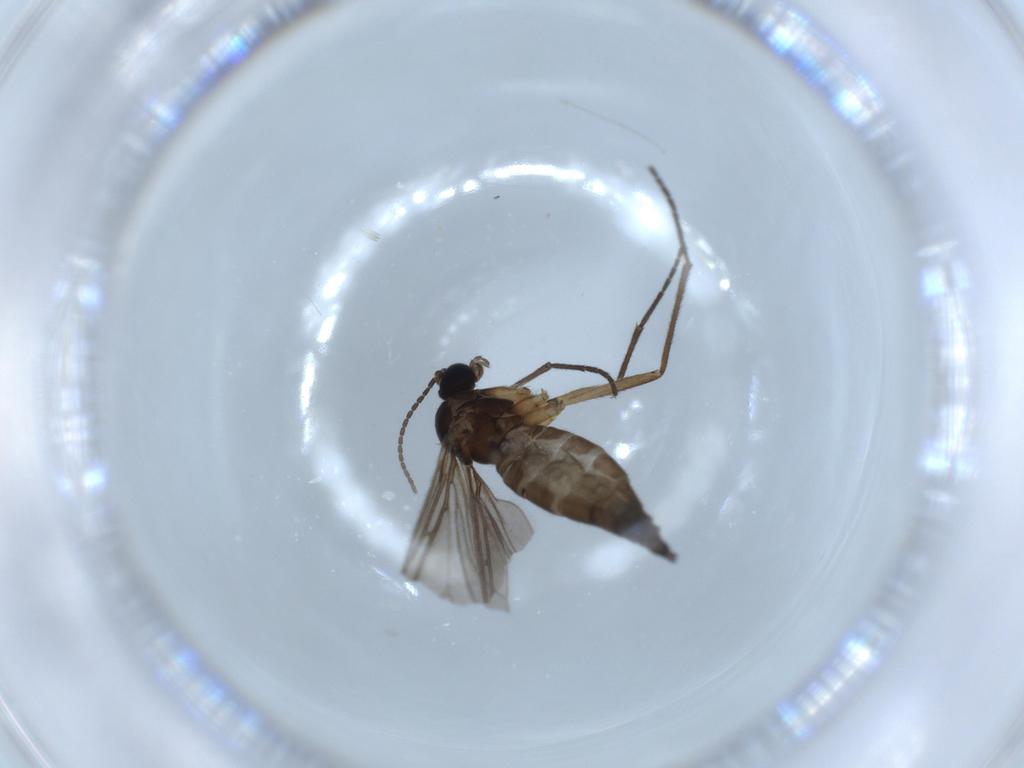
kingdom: Animalia
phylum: Arthropoda
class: Insecta
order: Diptera
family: Sciaridae
